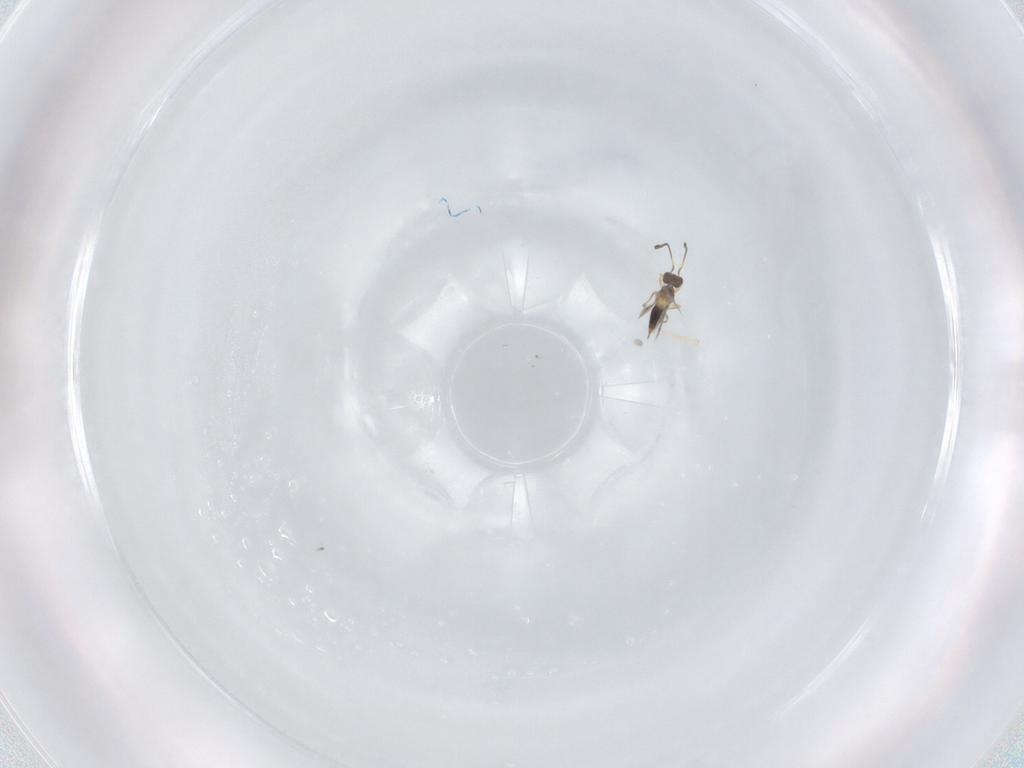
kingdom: Animalia
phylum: Arthropoda
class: Insecta
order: Hymenoptera
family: Mymaridae
